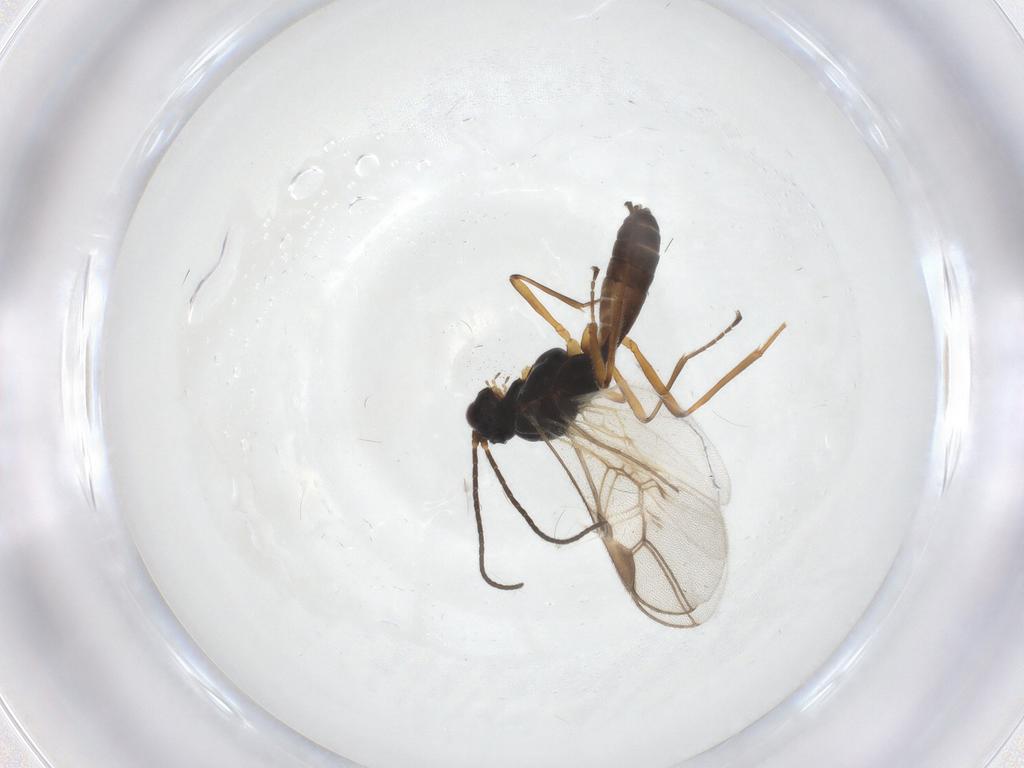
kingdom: Animalia
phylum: Arthropoda
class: Insecta
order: Hymenoptera
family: Braconidae
